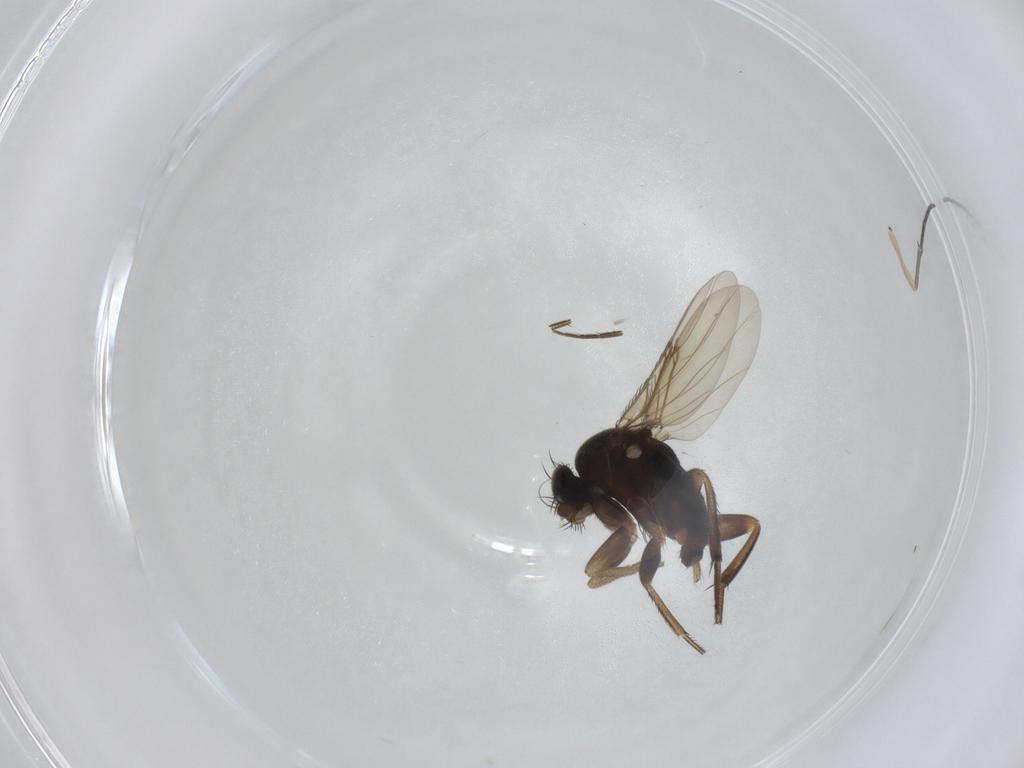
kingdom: Animalia
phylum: Arthropoda
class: Insecta
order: Diptera
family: Sciaridae
